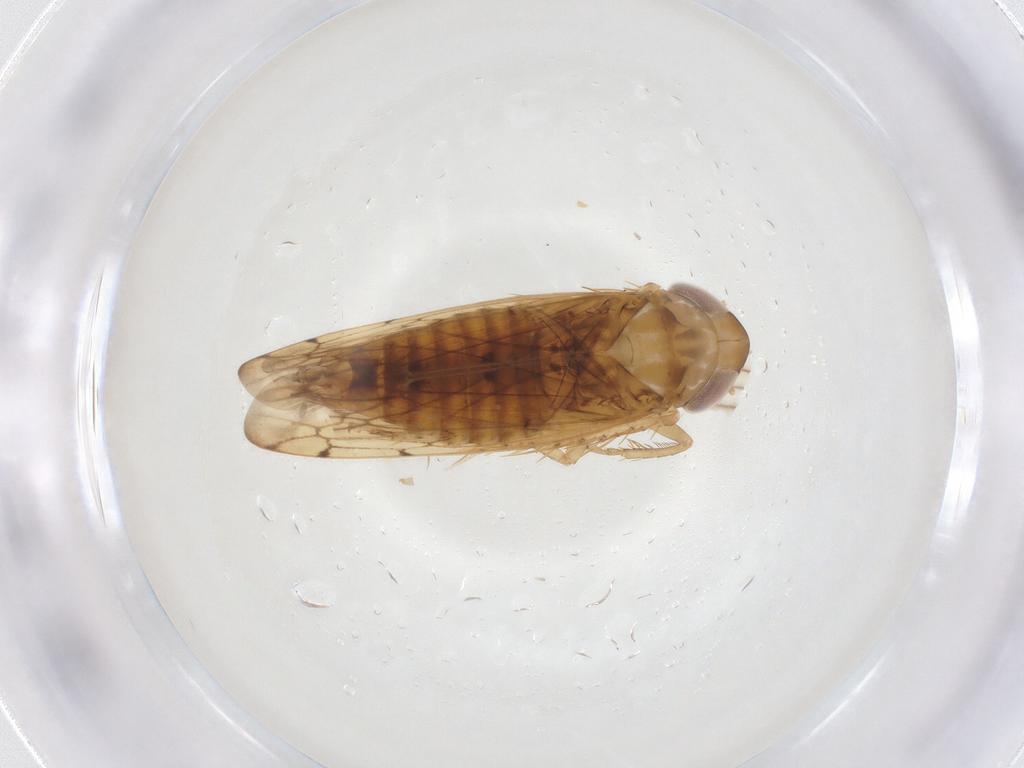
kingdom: Animalia
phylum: Arthropoda
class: Insecta
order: Hemiptera
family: Cicadellidae
